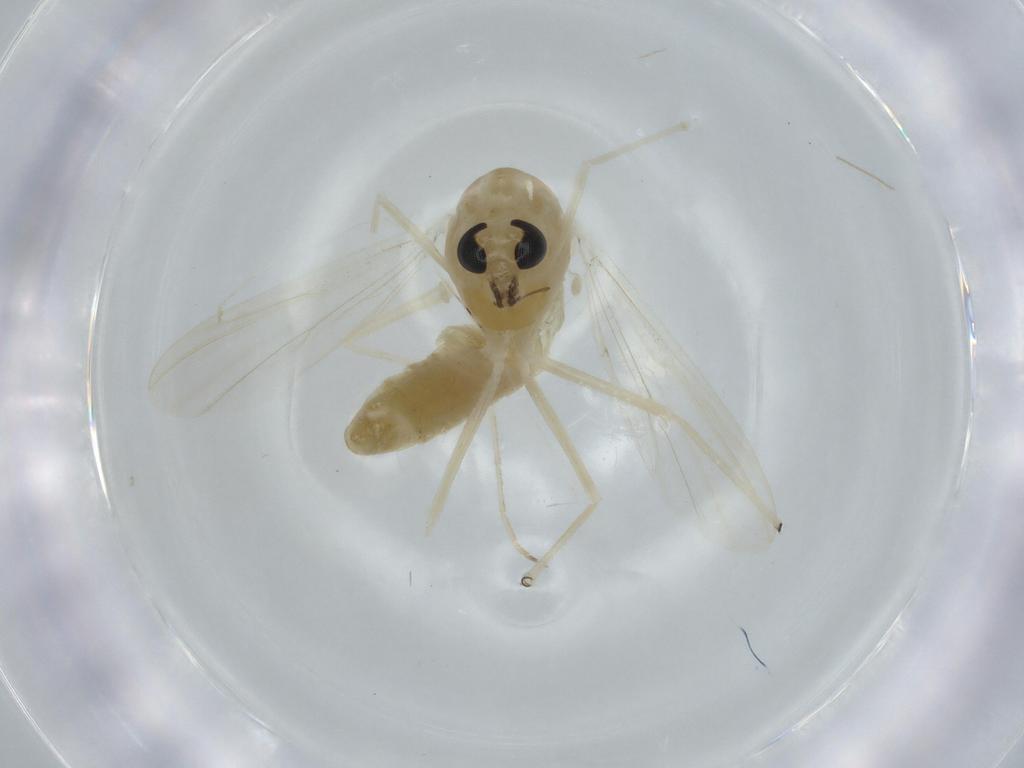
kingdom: Animalia
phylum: Arthropoda
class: Insecta
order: Diptera
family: Chironomidae
